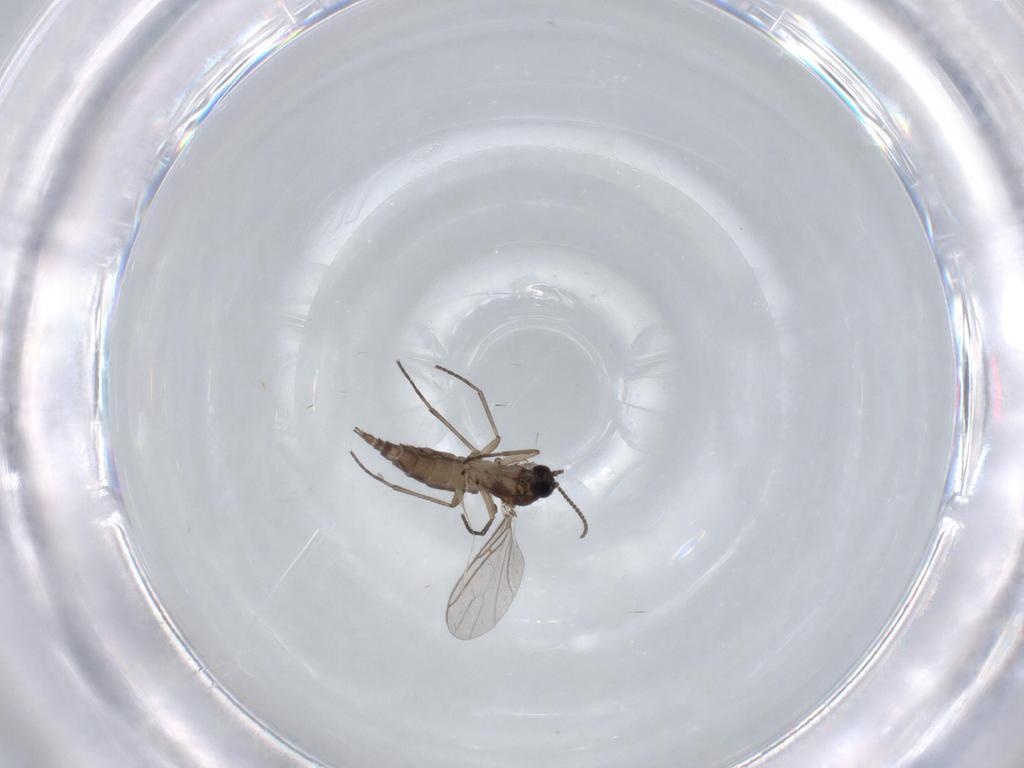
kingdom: Animalia
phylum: Arthropoda
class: Insecta
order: Diptera
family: Sciaridae
